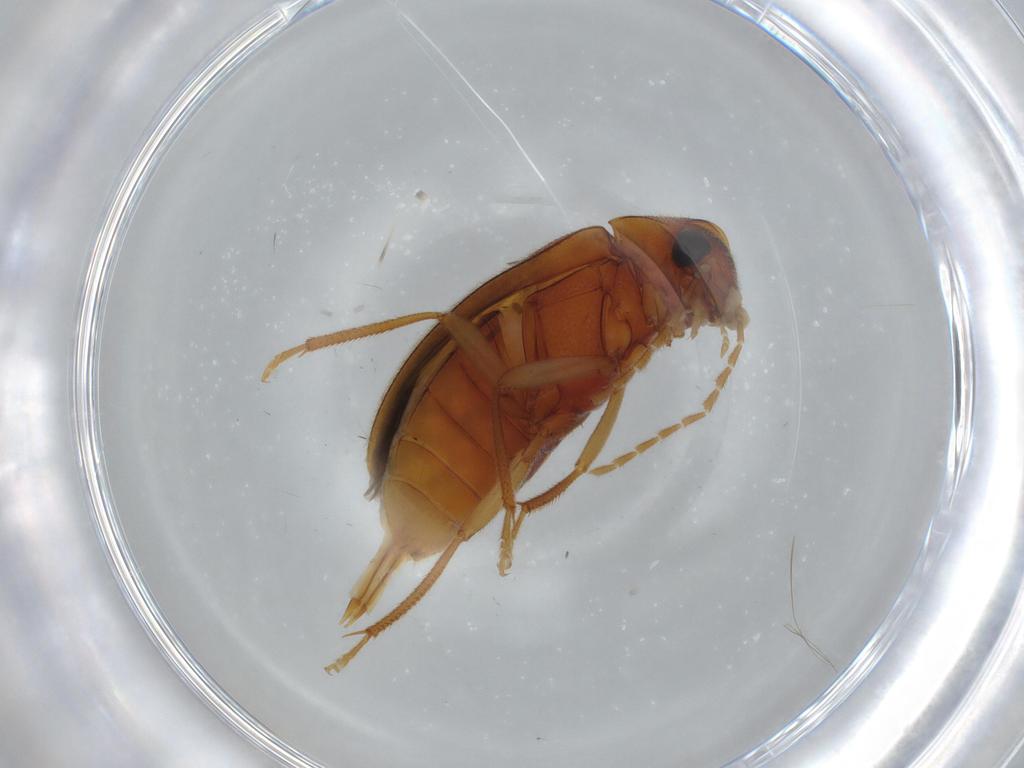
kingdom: Animalia
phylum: Arthropoda
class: Insecta
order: Coleoptera
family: Ptilodactylidae
